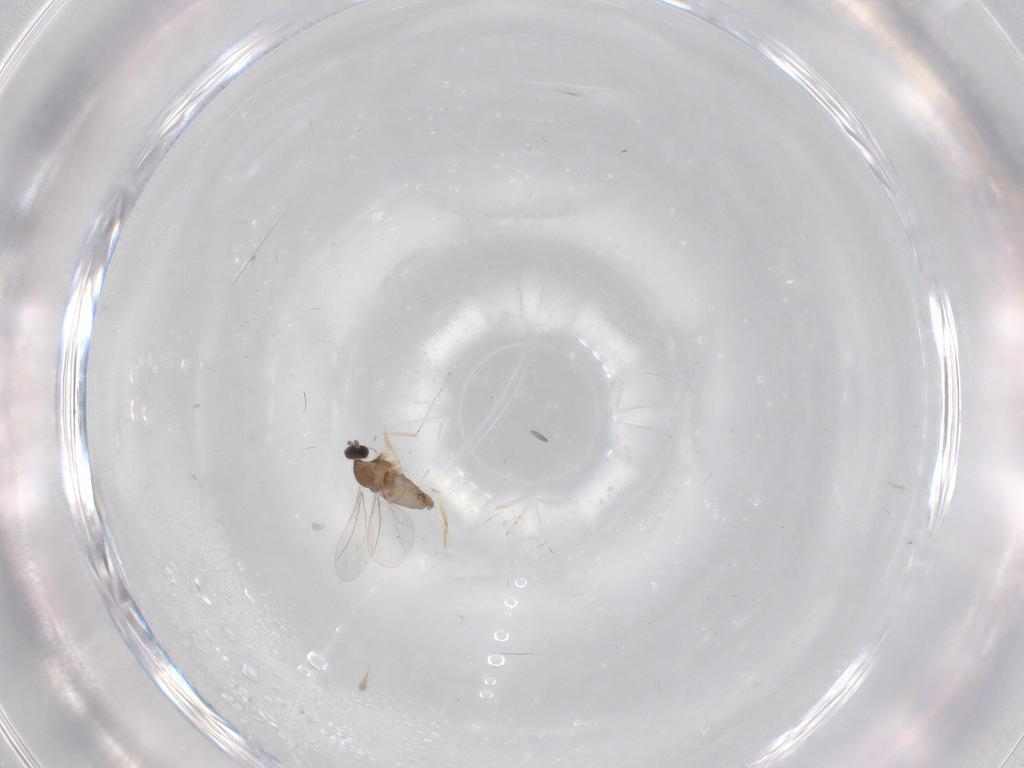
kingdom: Animalia
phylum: Arthropoda
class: Insecta
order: Diptera
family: Cecidomyiidae
